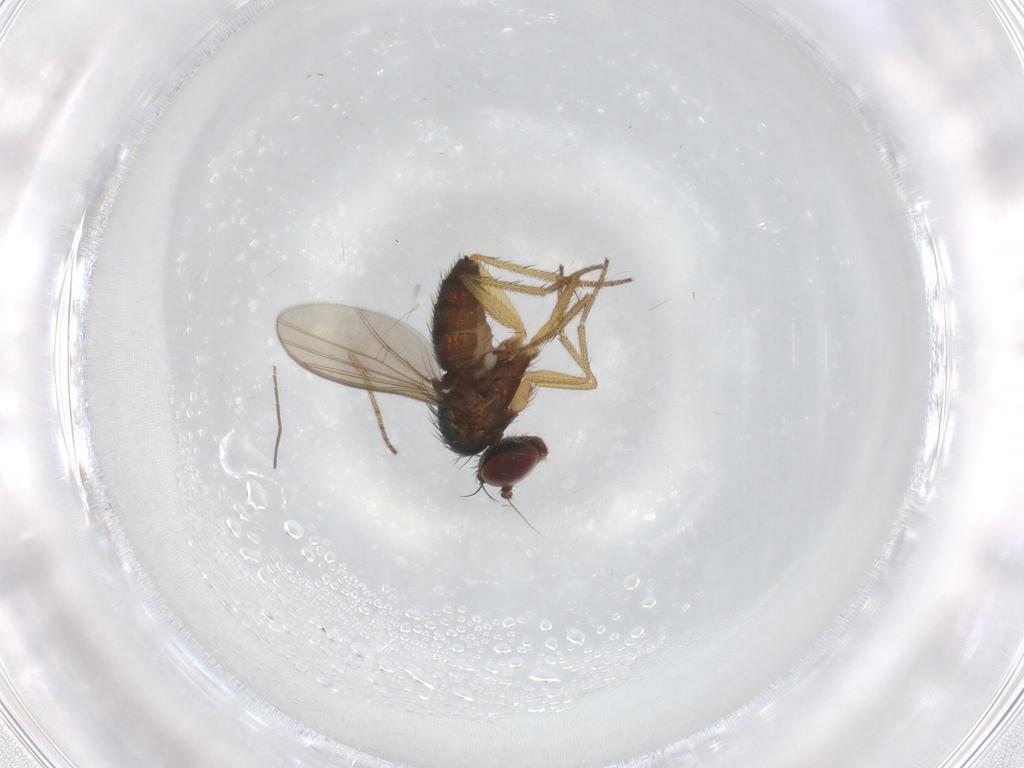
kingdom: Animalia
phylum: Arthropoda
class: Insecta
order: Diptera
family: Dolichopodidae
